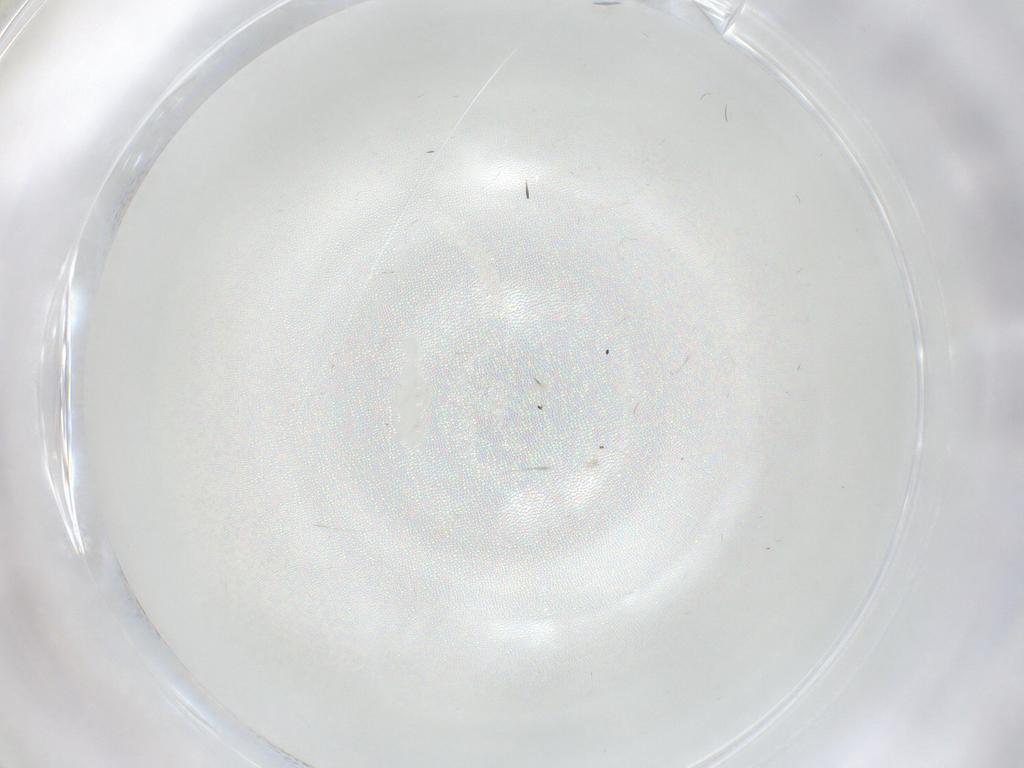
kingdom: Animalia
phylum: Arthropoda
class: Insecta
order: Diptera
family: Cecidomyiidae
